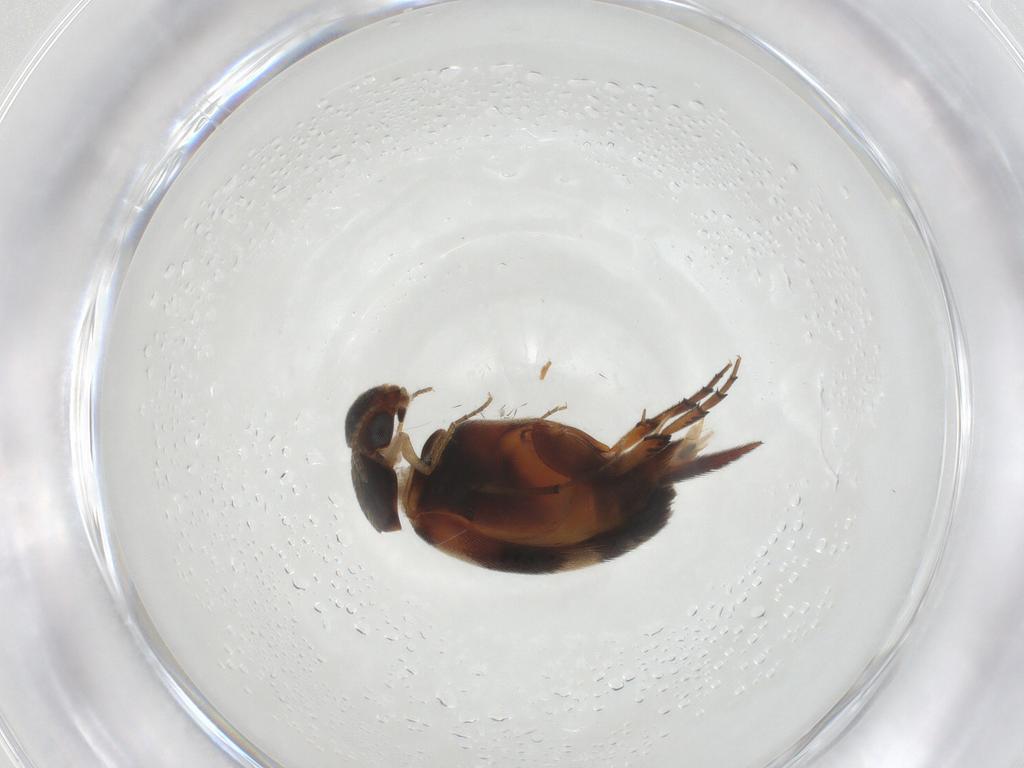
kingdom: Animalia
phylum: Arthropoda
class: Insecta
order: Coleoptera
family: Mordellidae
